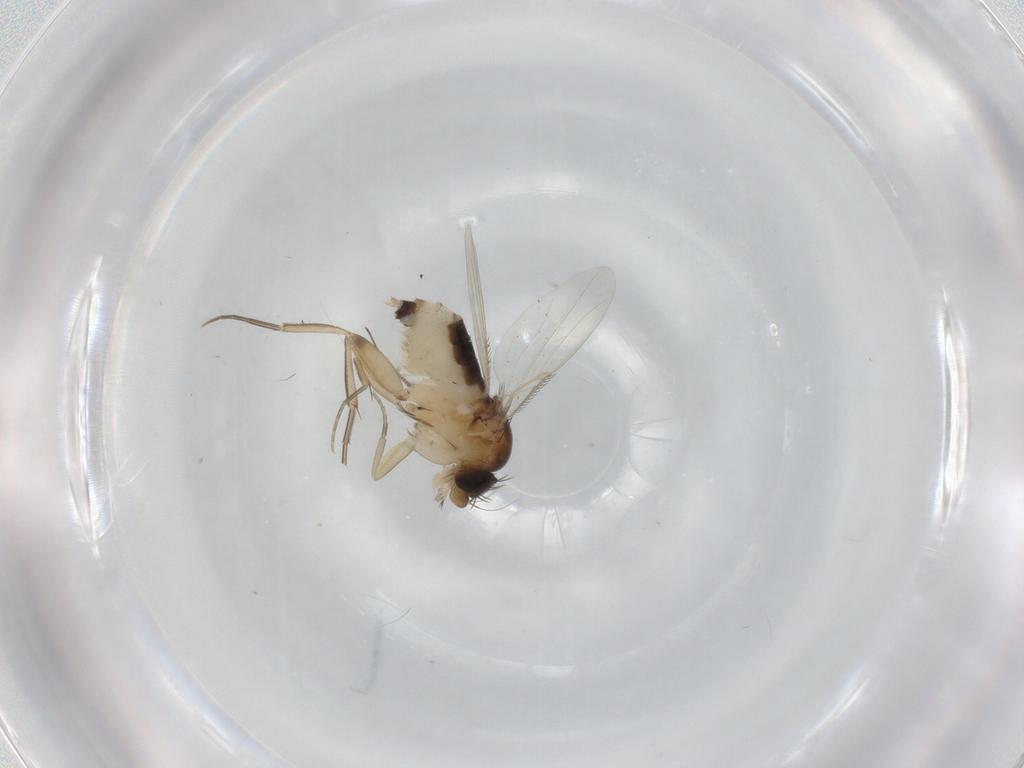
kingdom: Animalia
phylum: Arthropoda
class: Insecta
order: Diptera
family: Phoridae
